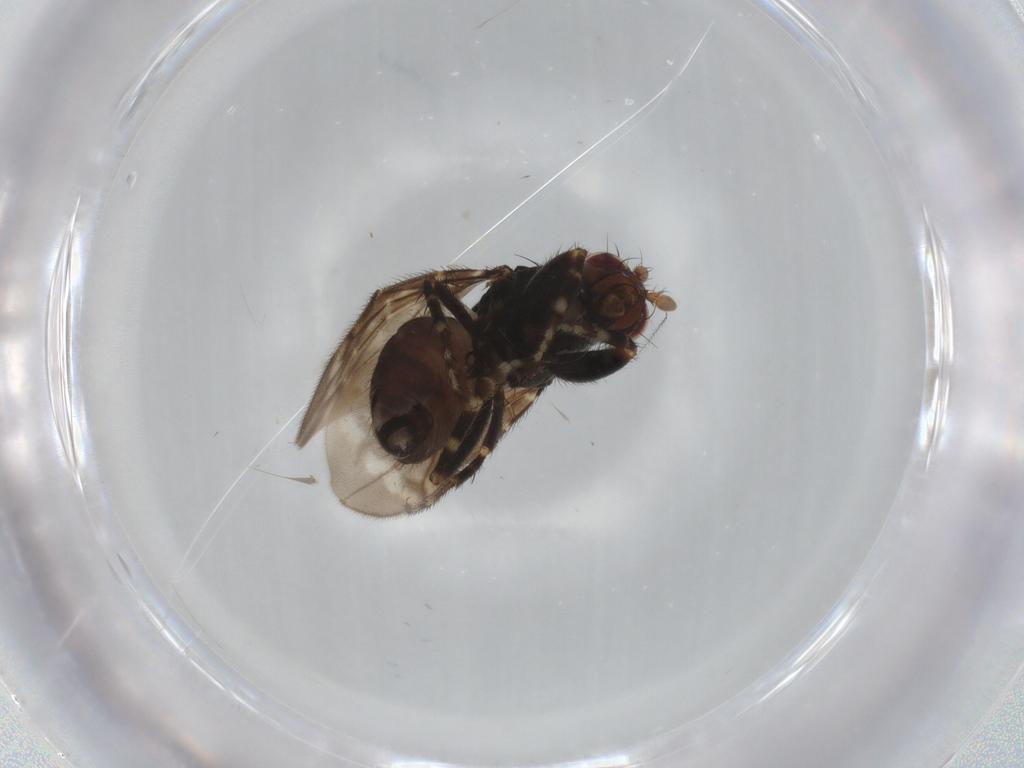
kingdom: Animalia
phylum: Arthropoda
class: Insecta
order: Diptera
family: Sphaeroceridae
